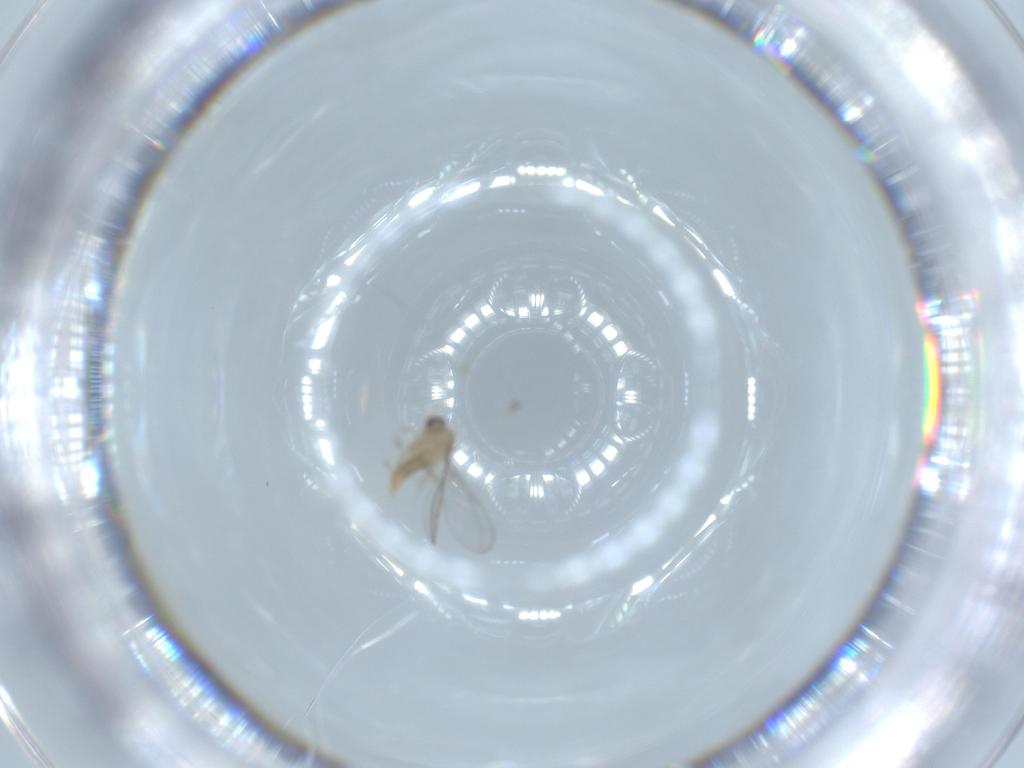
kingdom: Animalia
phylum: Arthropoda
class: Insecta
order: Diptera
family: Cecidomyiidae
